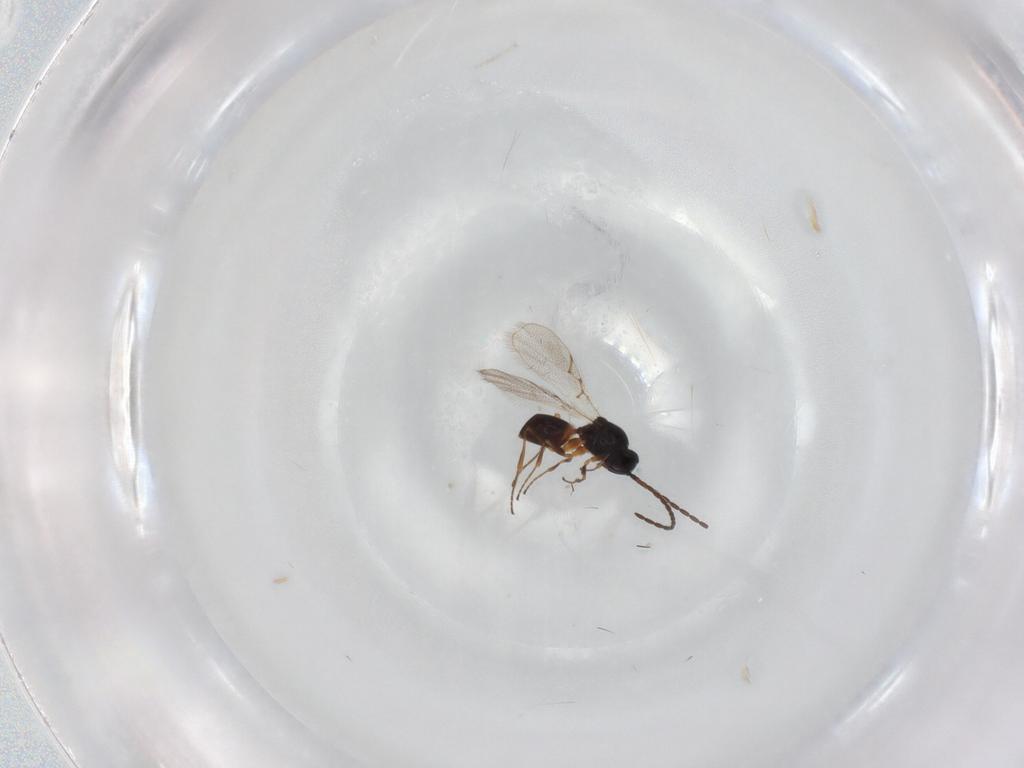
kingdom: Animalia
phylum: Arthropoda
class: Insecta
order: Hymenoptera
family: Figitidae
